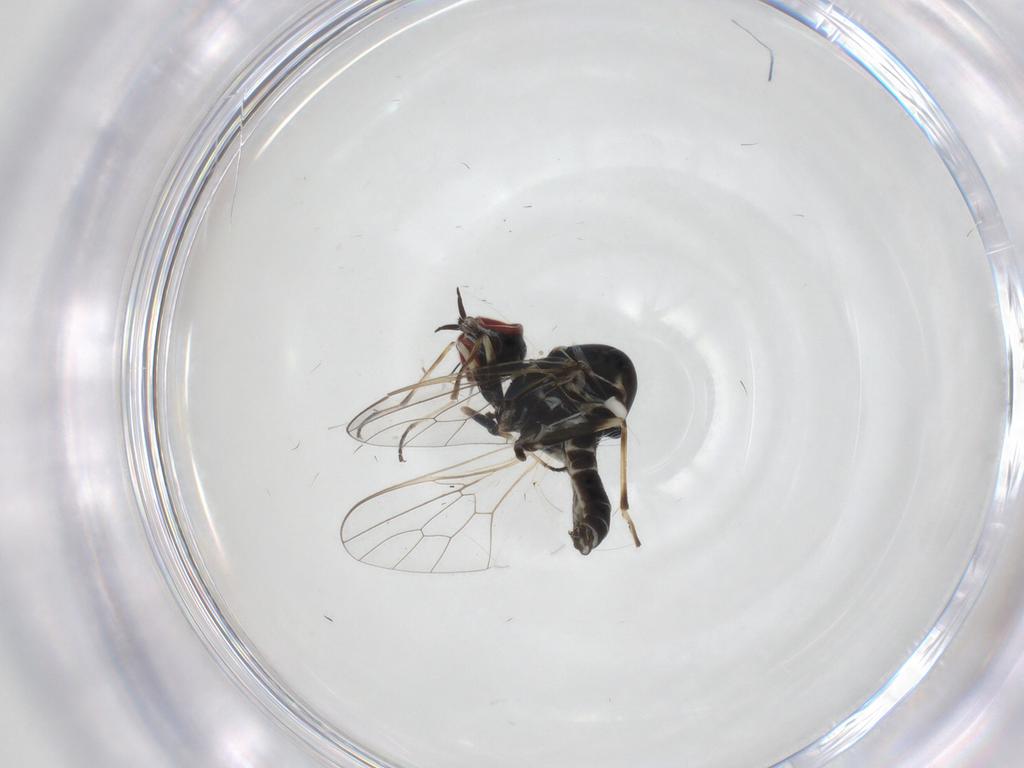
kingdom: Animalia
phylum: Arthropoda
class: Insecta
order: Diptera
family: Bombyliidae
